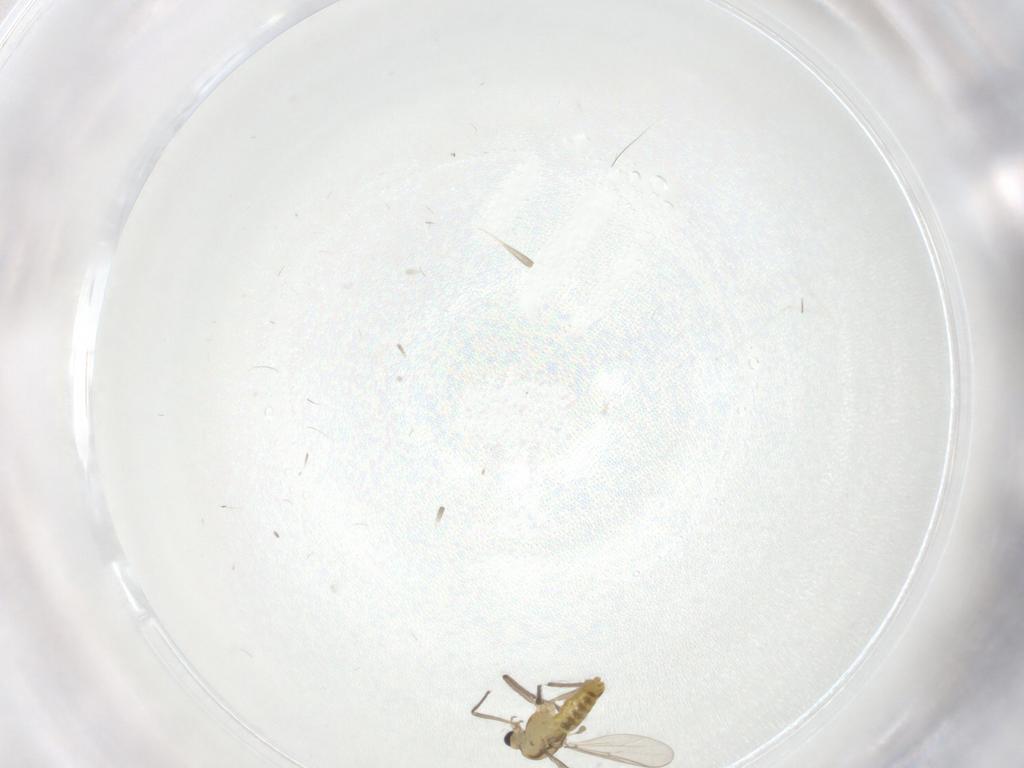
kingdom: Animalia
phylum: Arthropoda
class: Insecta
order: Diptera
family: Chironomidae
